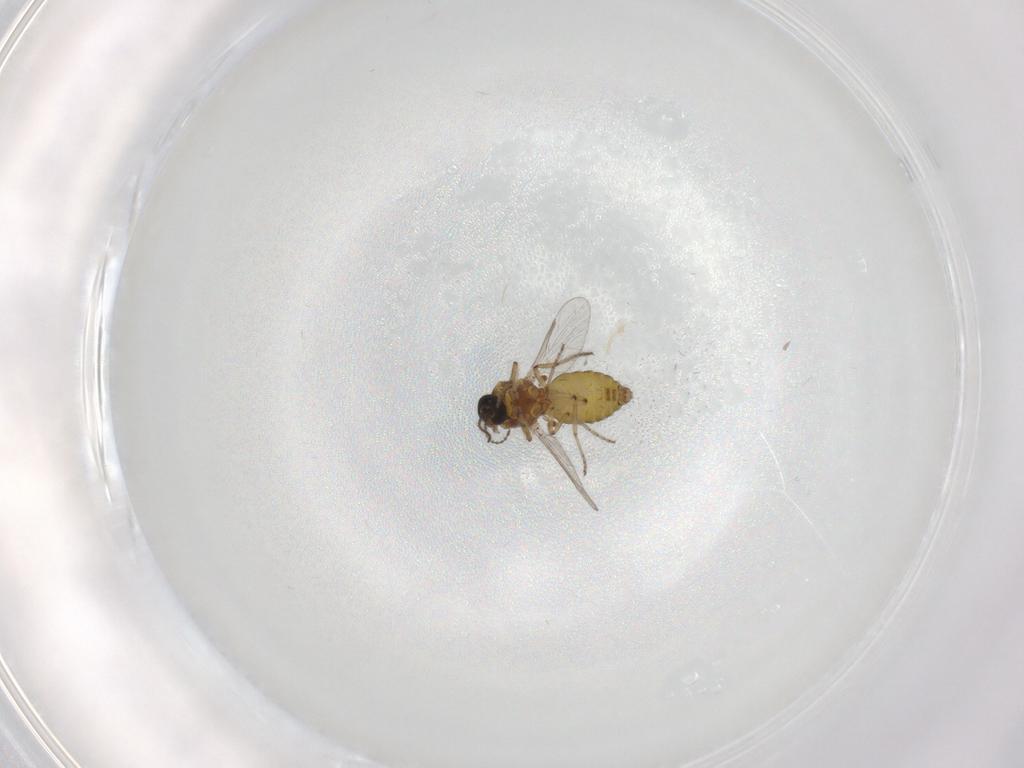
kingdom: Animalia
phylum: Arthropoda
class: Insecta
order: Diptera
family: Ceratopogonidae
